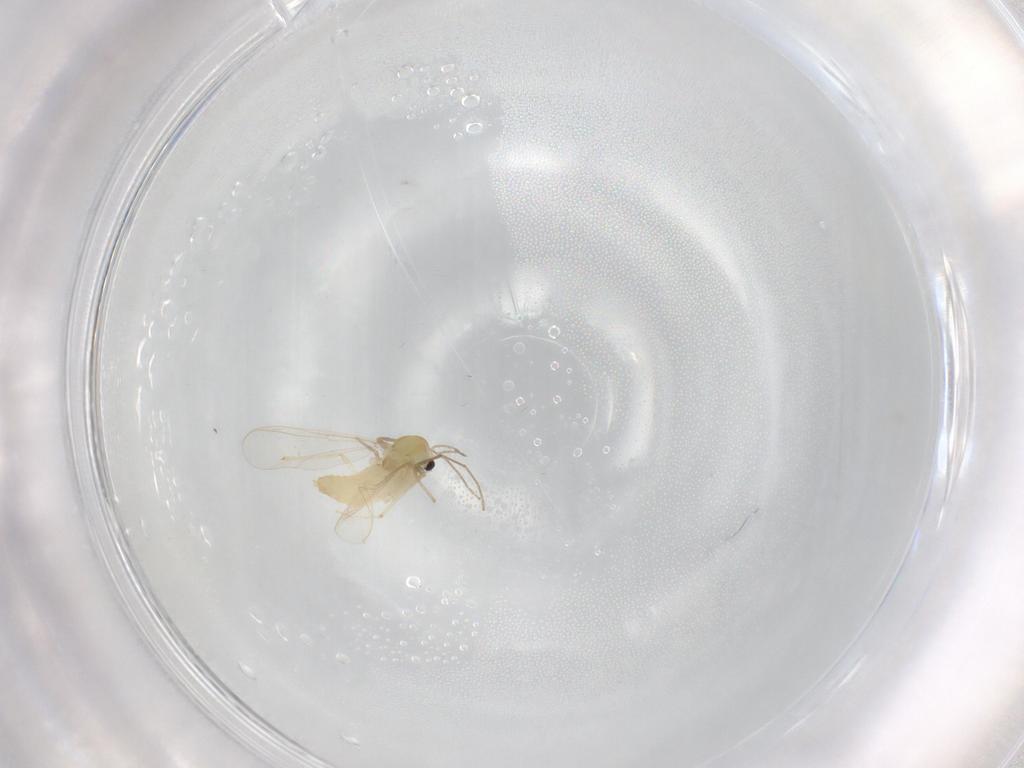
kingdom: Animalia
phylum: Arthropoda
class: Insecta
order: Diptera
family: Chironomidae
